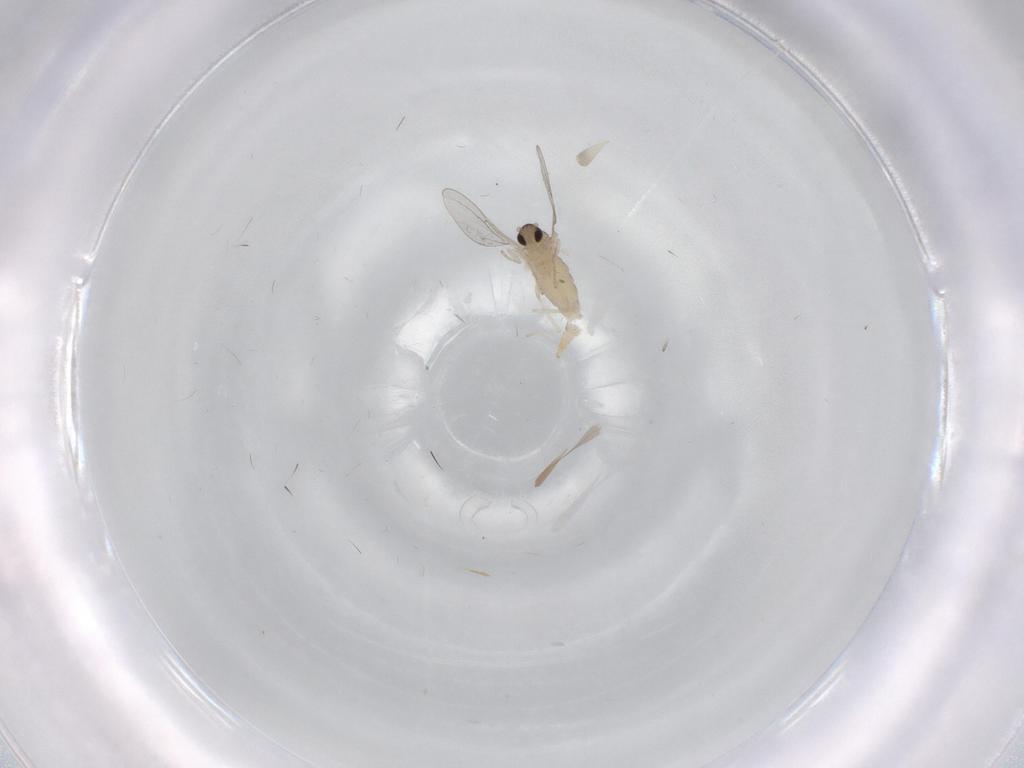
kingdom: Animalia
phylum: Arthropoda
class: Insecta
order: Diptera
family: Cecidomyiidae
